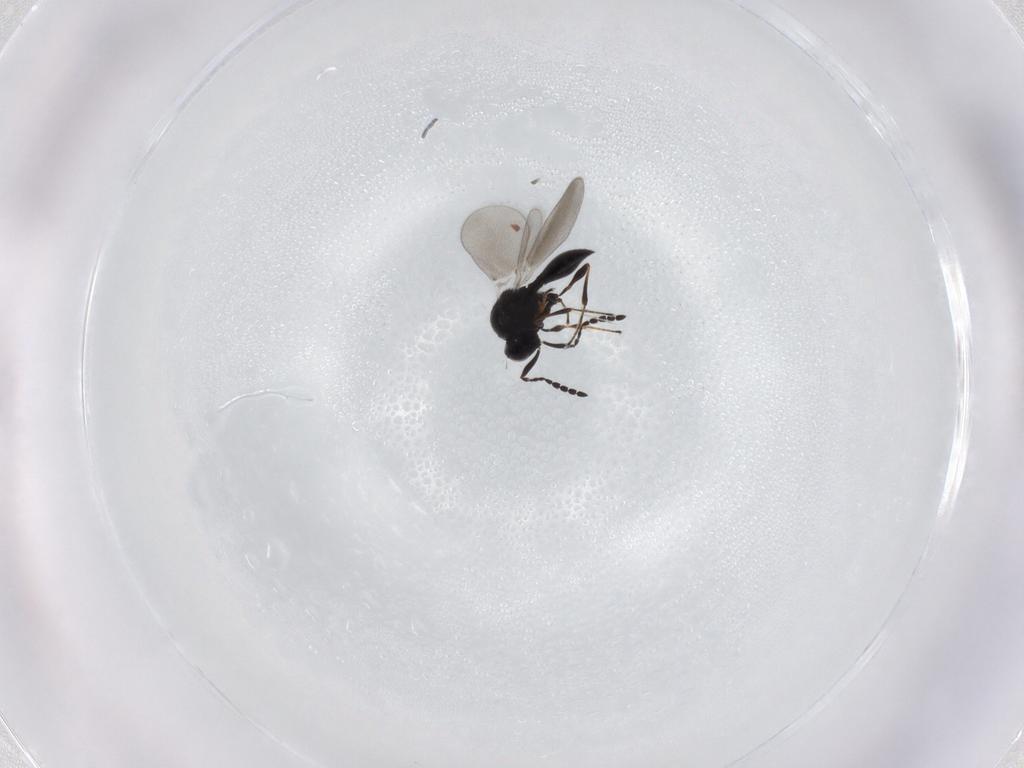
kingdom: Animalia
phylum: Arthropoda
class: Insecta
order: Hymenoptera
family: Platygastridae
